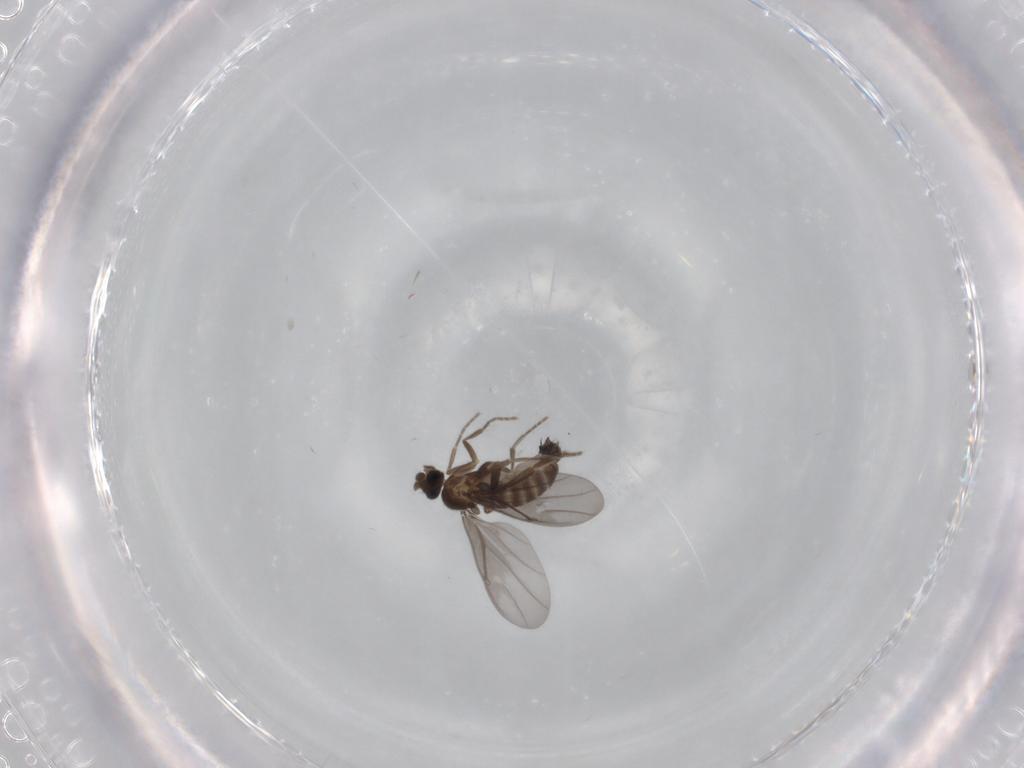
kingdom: Animalia
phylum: Arthropoda
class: Insecta
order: Diptera
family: Phoridae
